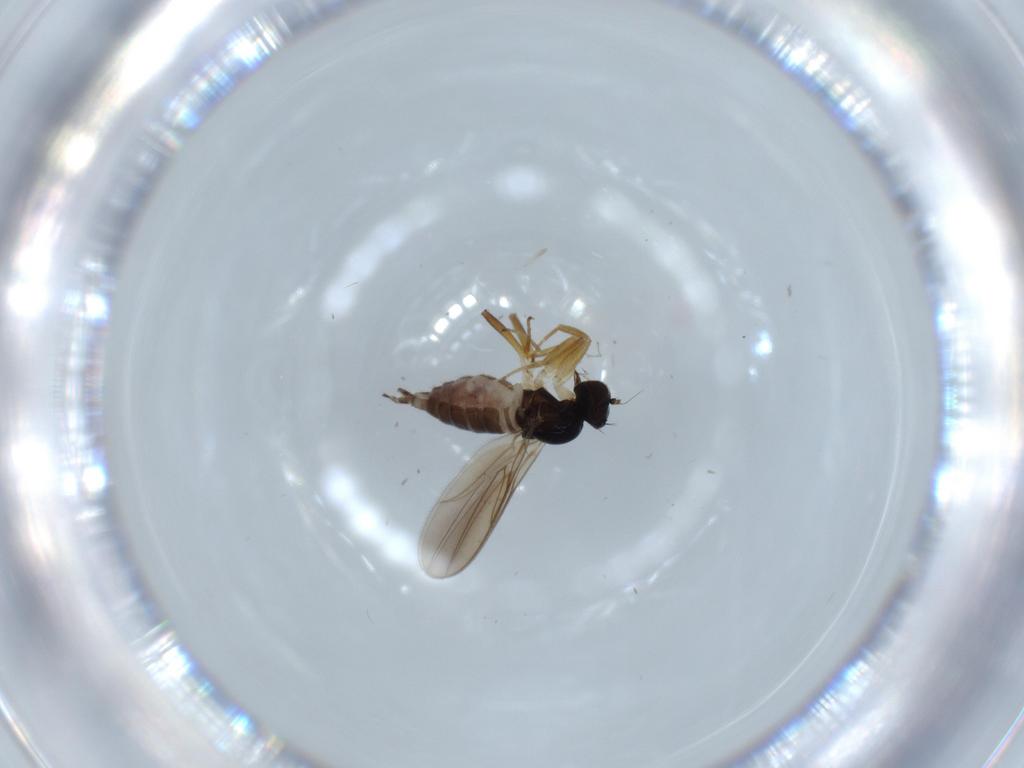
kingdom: Animalia
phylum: Arthropoda
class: Insecta
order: Diptera
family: Hybotidae
